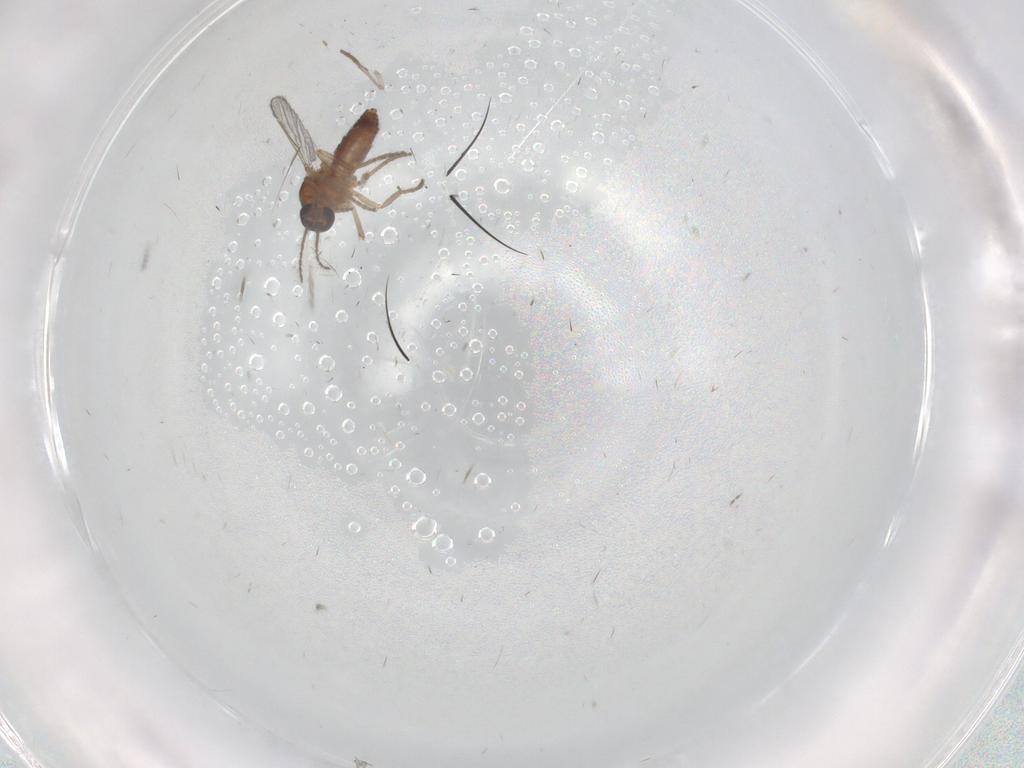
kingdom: Animalia
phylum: Arthropoda
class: Insecta
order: Diptera
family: Ceratopogonidae
